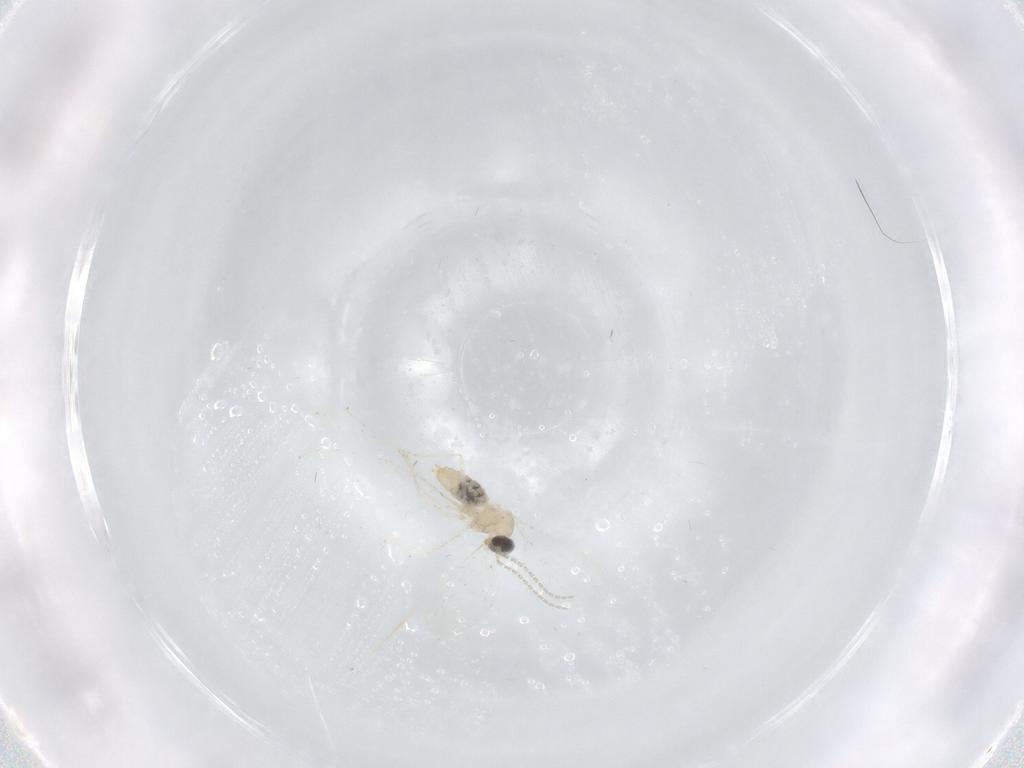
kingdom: Animalia
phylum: Arthropoda
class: Insecta
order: Diptera
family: Cecidomyiidae
